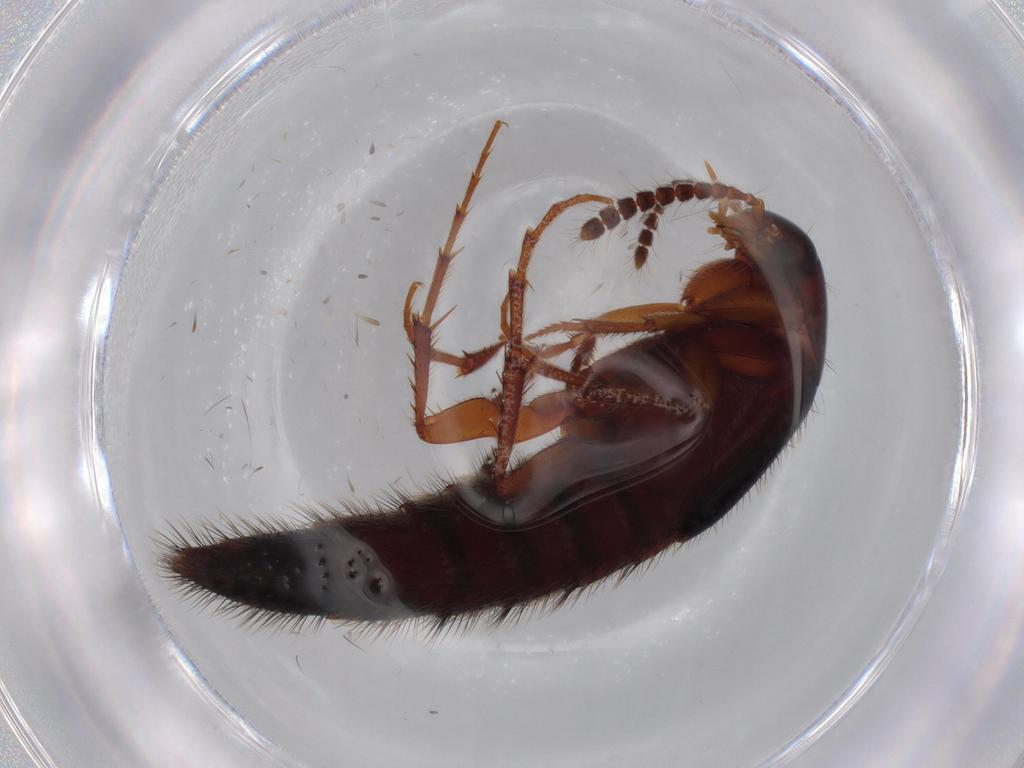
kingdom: Animalia
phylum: Arthropoda
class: Insecta
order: Coleoptera
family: Staphylinidae
